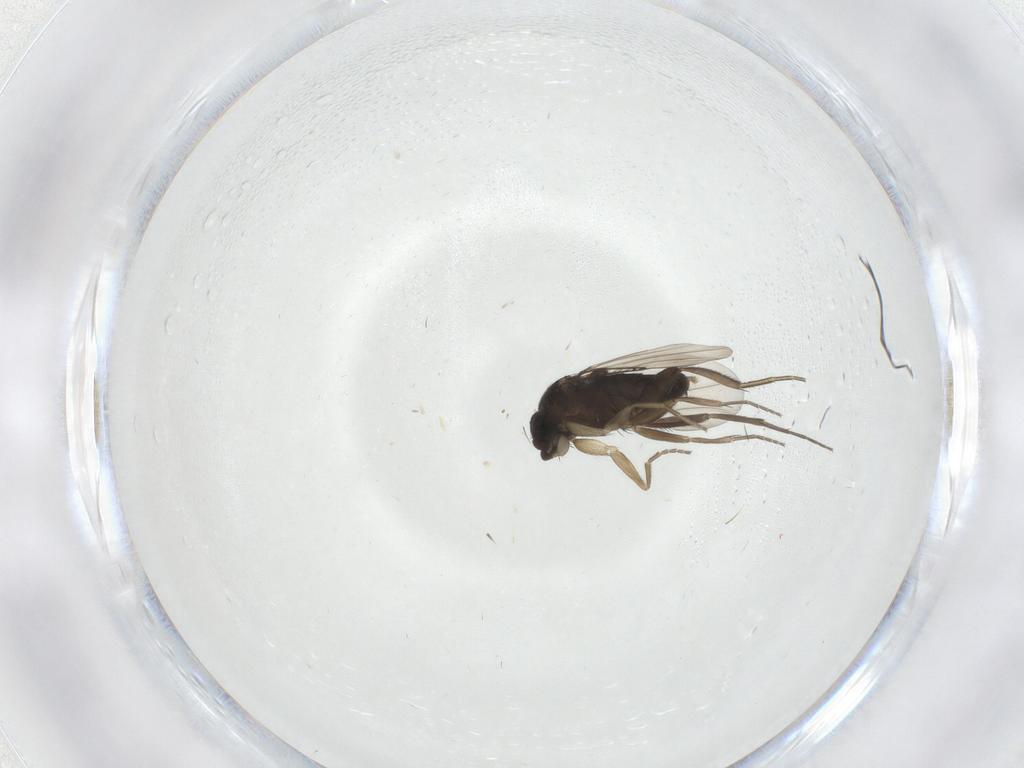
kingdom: Animalia
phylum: Arthropoda
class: Insecta
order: Diptera
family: Phoridae
